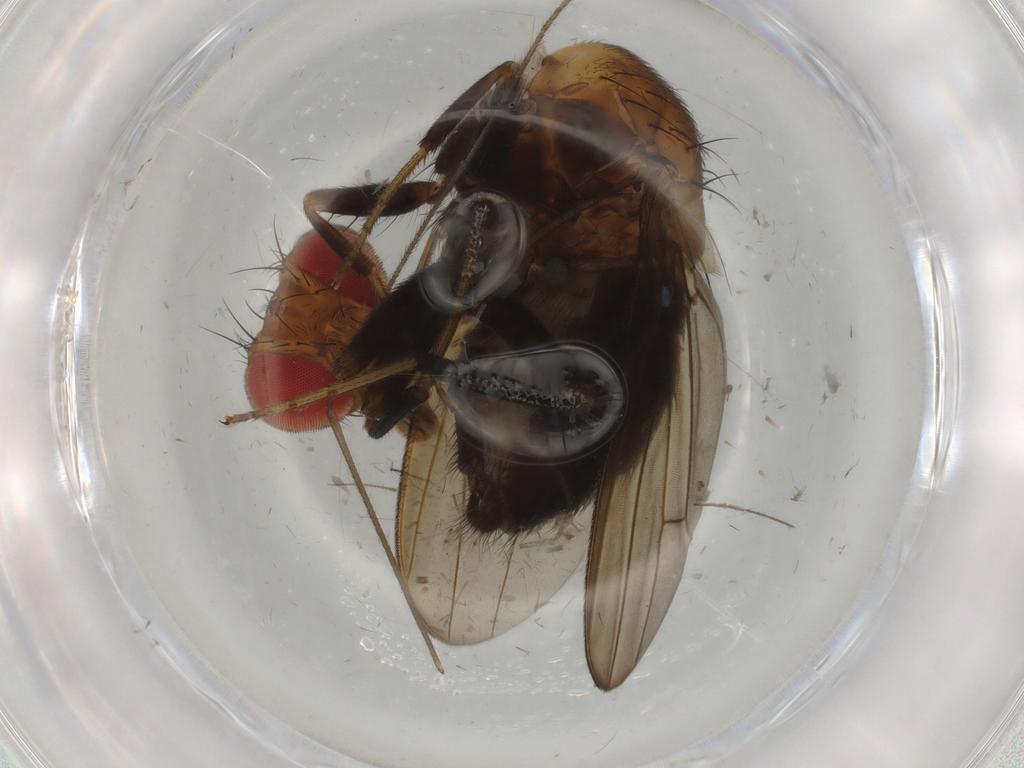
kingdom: Animalia
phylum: Arthropoda
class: Insecta
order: Diptera
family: Cecidomyiidae
